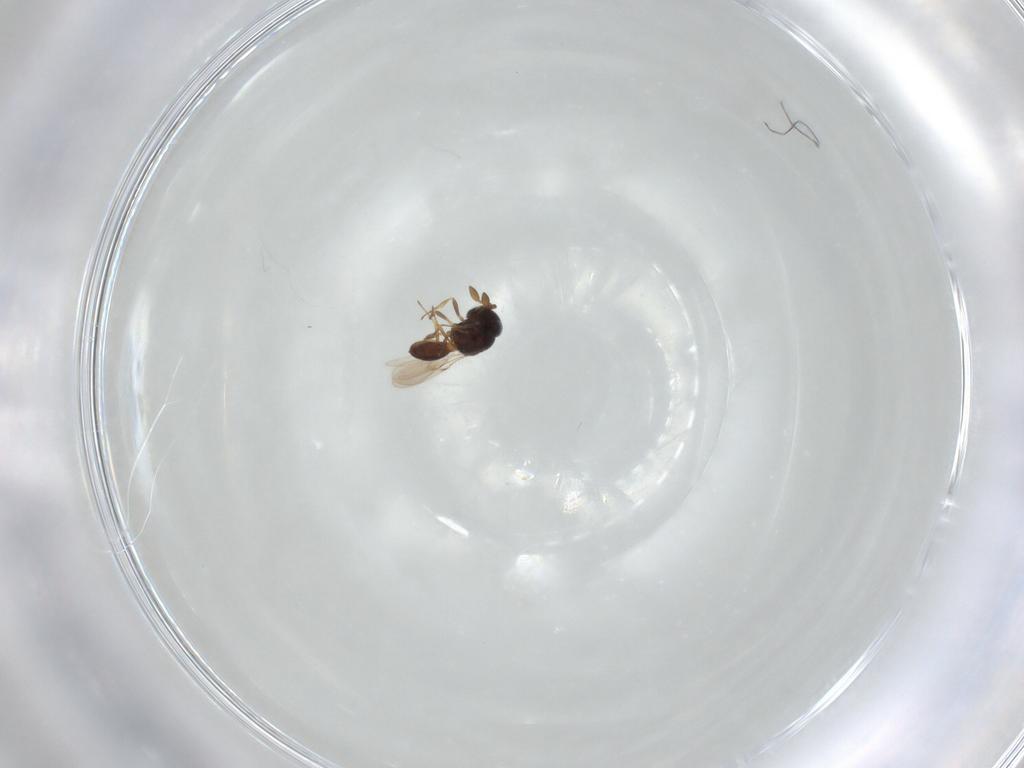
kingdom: Animalia
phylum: Arthropoda
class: Insecta
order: Hymenoptera
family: Scelionidae
